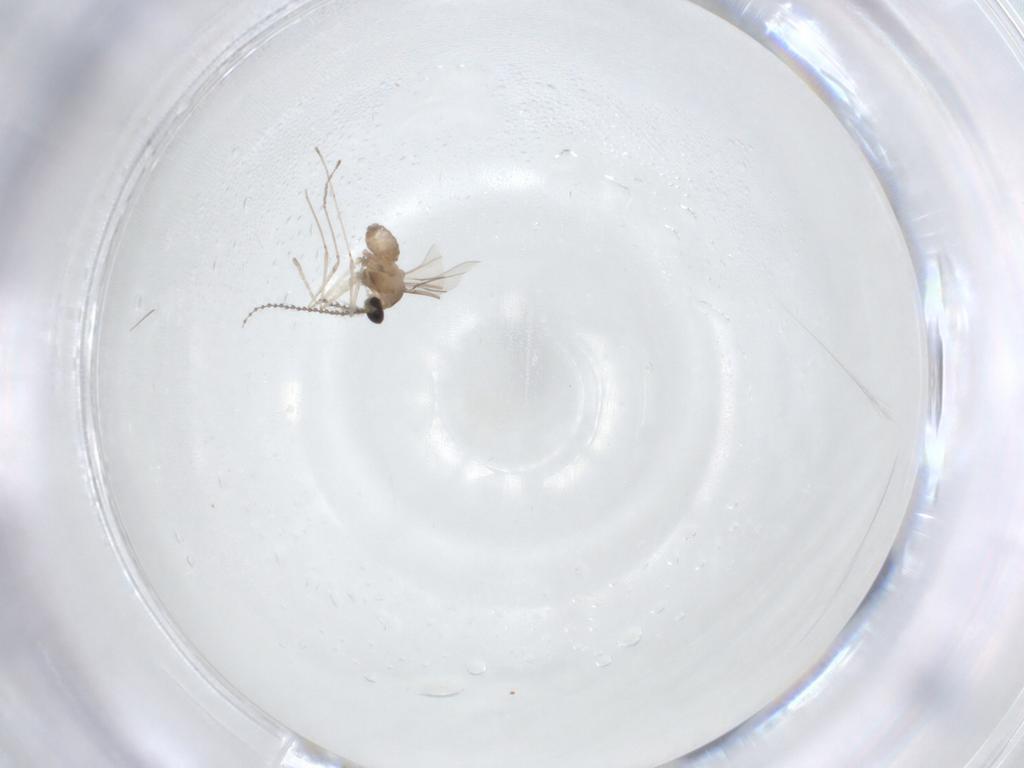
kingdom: Animalia
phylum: Arthropoda
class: Insecta
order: Diptera
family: Cecidomyiidae
